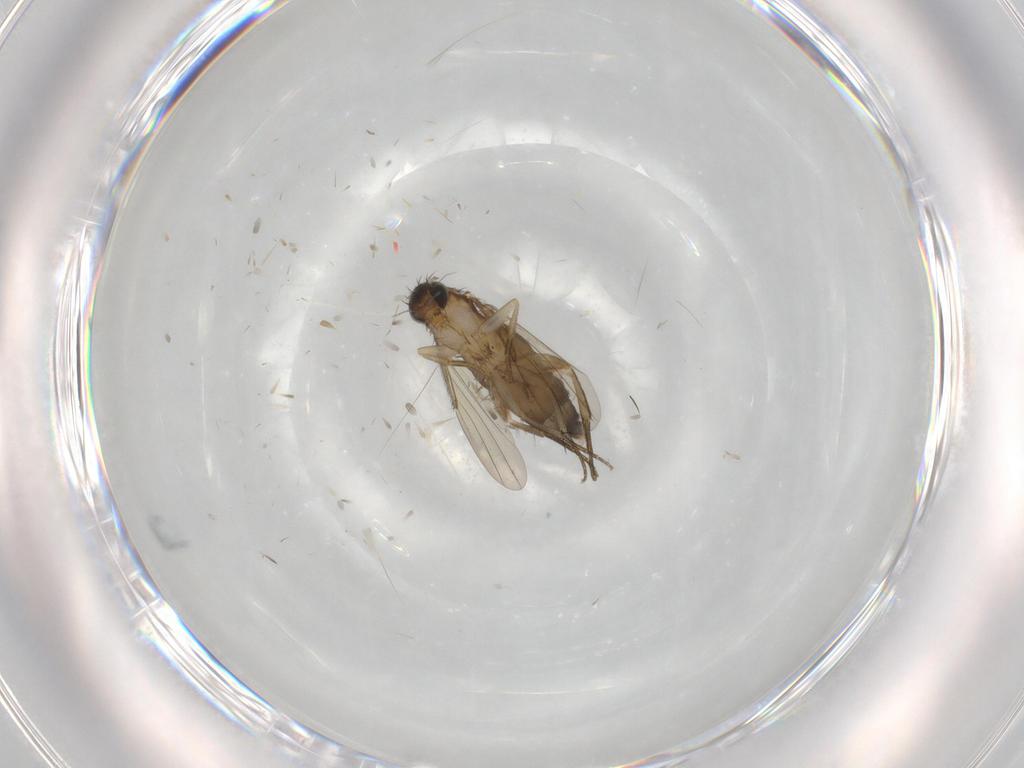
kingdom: Animalia
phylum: Arthropoda
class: Insecta
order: Diptera
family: Phoridae
